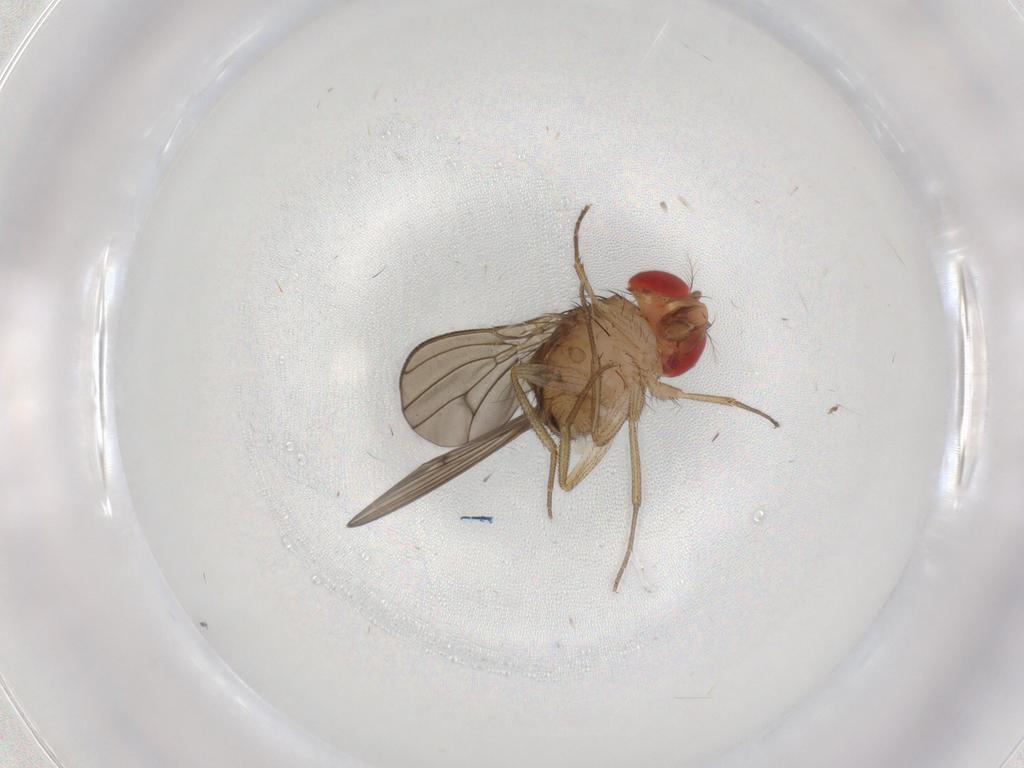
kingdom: Animalia
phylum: Arthropoda
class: Insecta
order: Diptera
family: Drosophilidae
